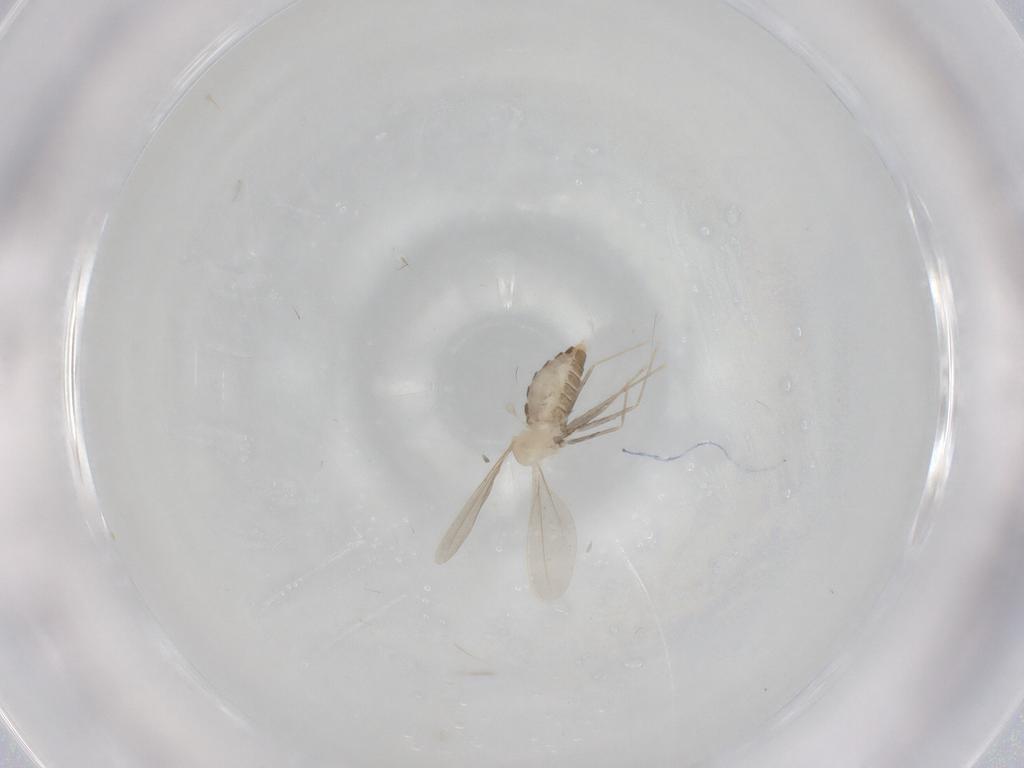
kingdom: Animalia
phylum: Arthropoda
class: Insecta
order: Diptera
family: Cecidomyiidae
